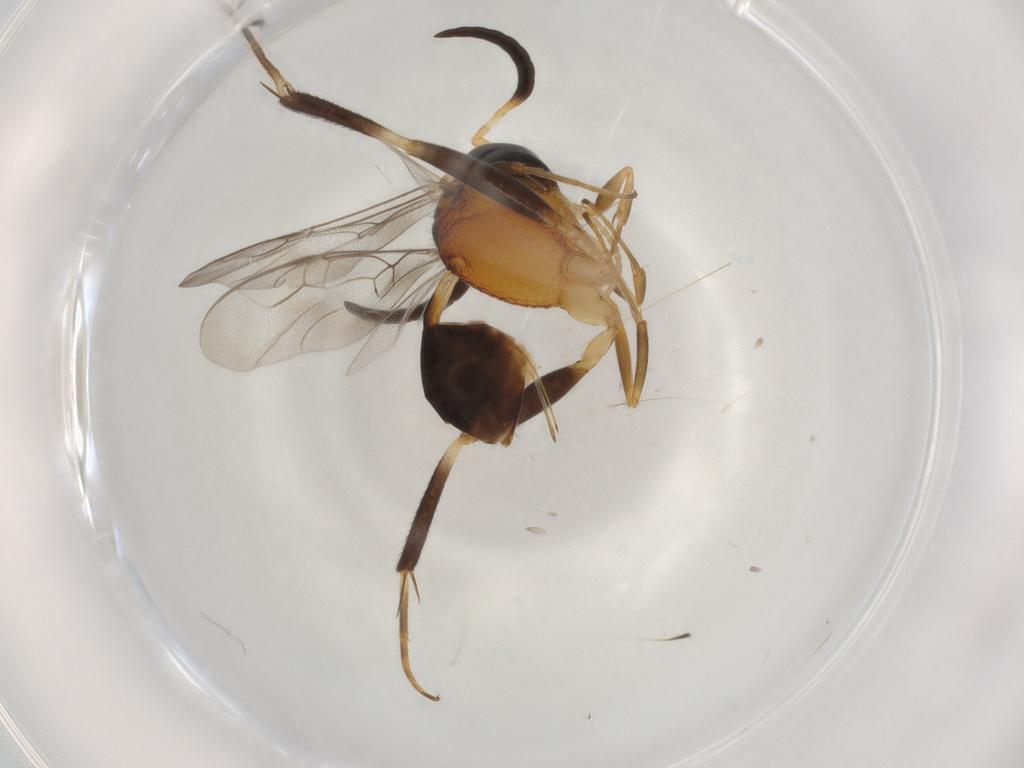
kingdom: Animalia
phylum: Arthropoda
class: Insecta
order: Hymenoptera
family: Evaniidae
